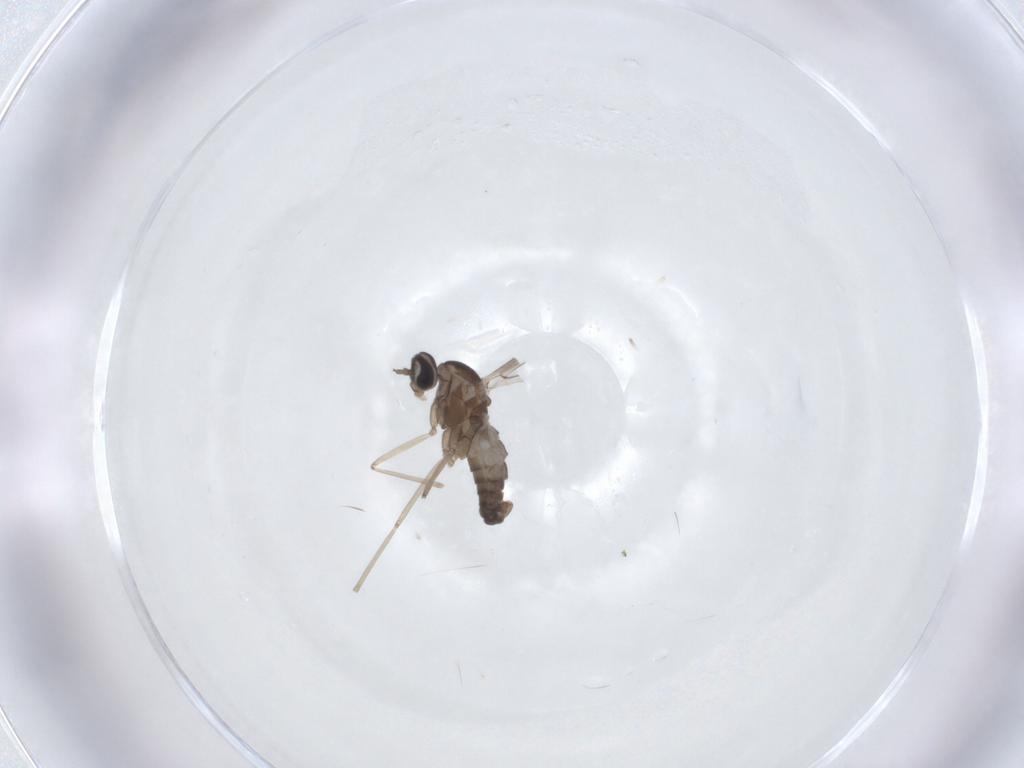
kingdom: Animalia
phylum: Arthropoda
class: Insecta
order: Diptera
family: Cecidomyiidae
